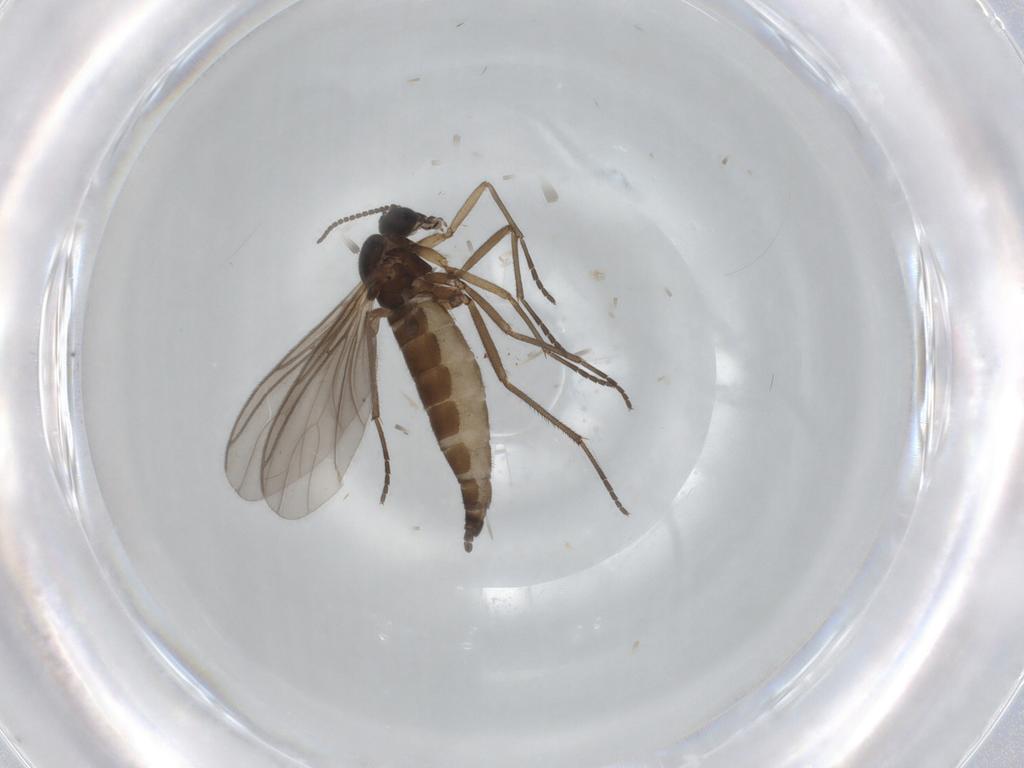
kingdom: Animalia
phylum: Arthropoda
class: Insecta
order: Diptera
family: Sciaridae
